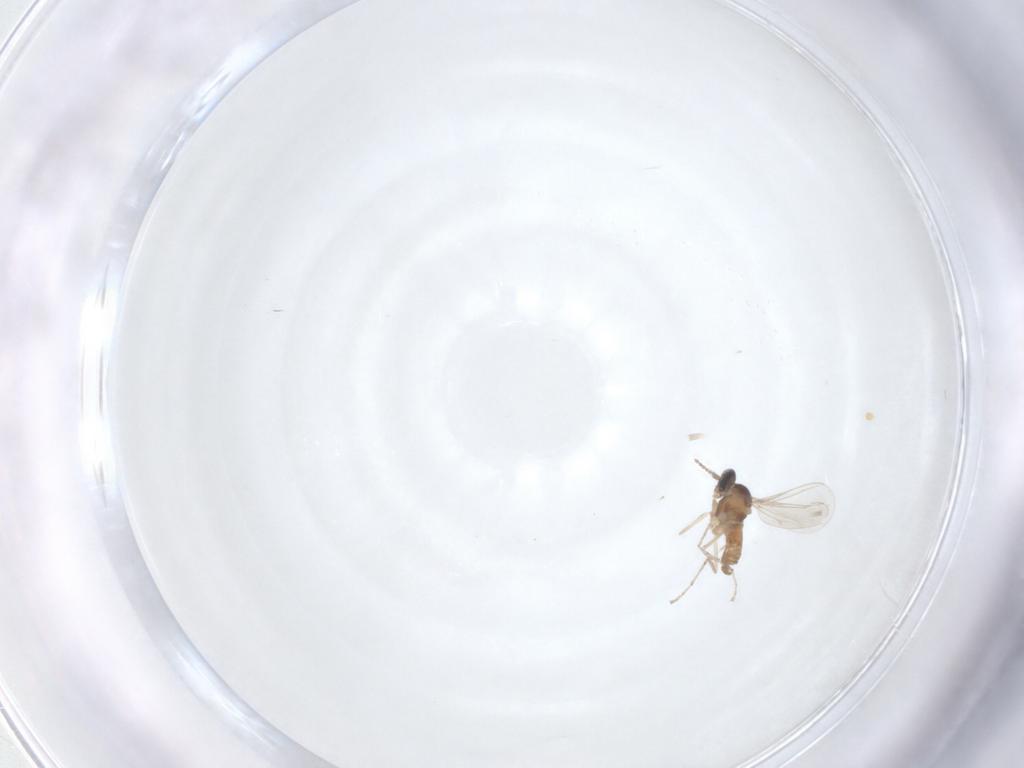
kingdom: Animalia
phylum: Arthropoda
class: Insecta
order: Diptera
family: Cecidomyiidae
